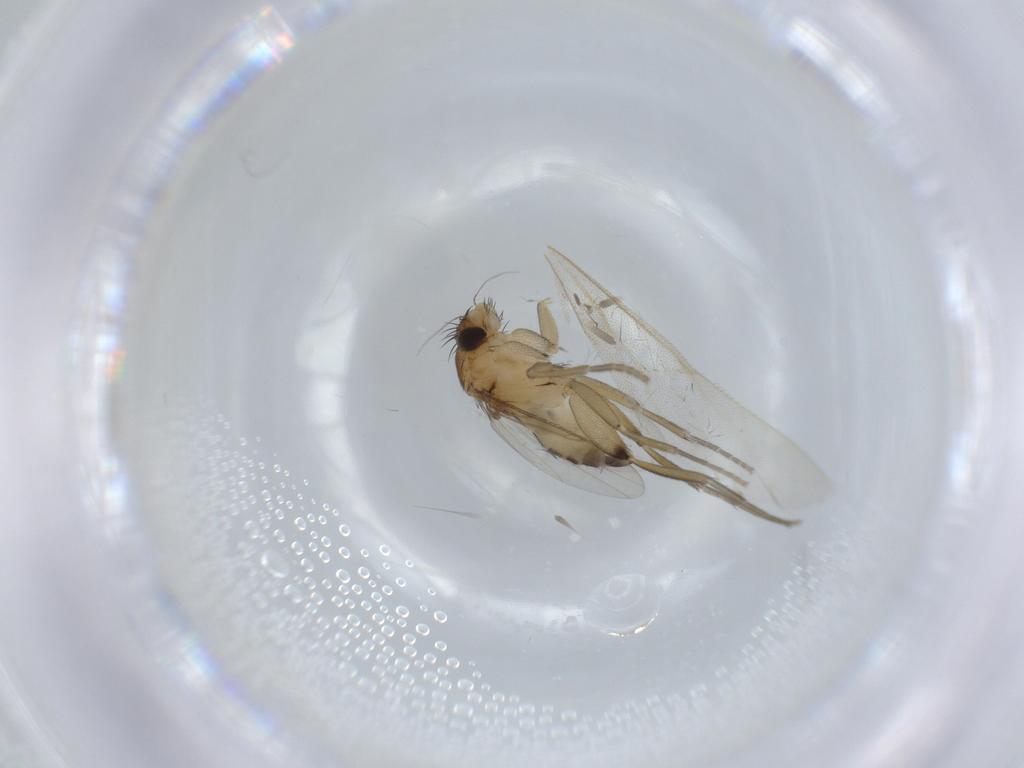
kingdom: Animalia
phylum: Arthropoda
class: Insecta
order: Diptera
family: Phoridae
